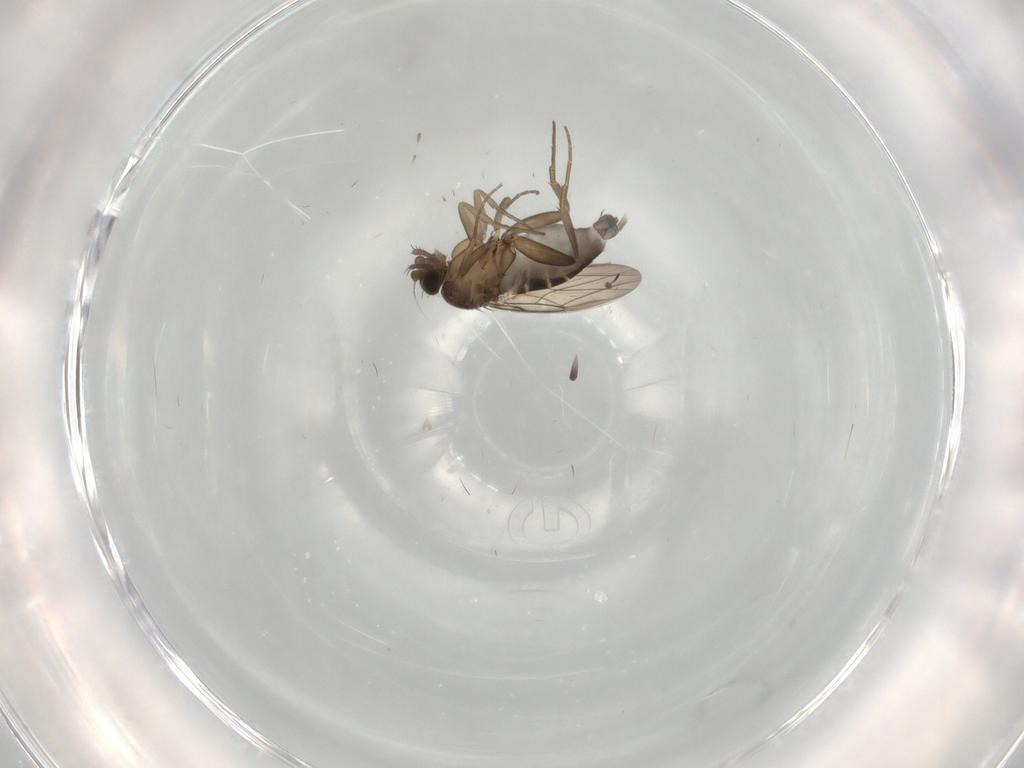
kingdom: Animalia
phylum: Arthropoda
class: Insecta
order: Diptera
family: Phoridae
